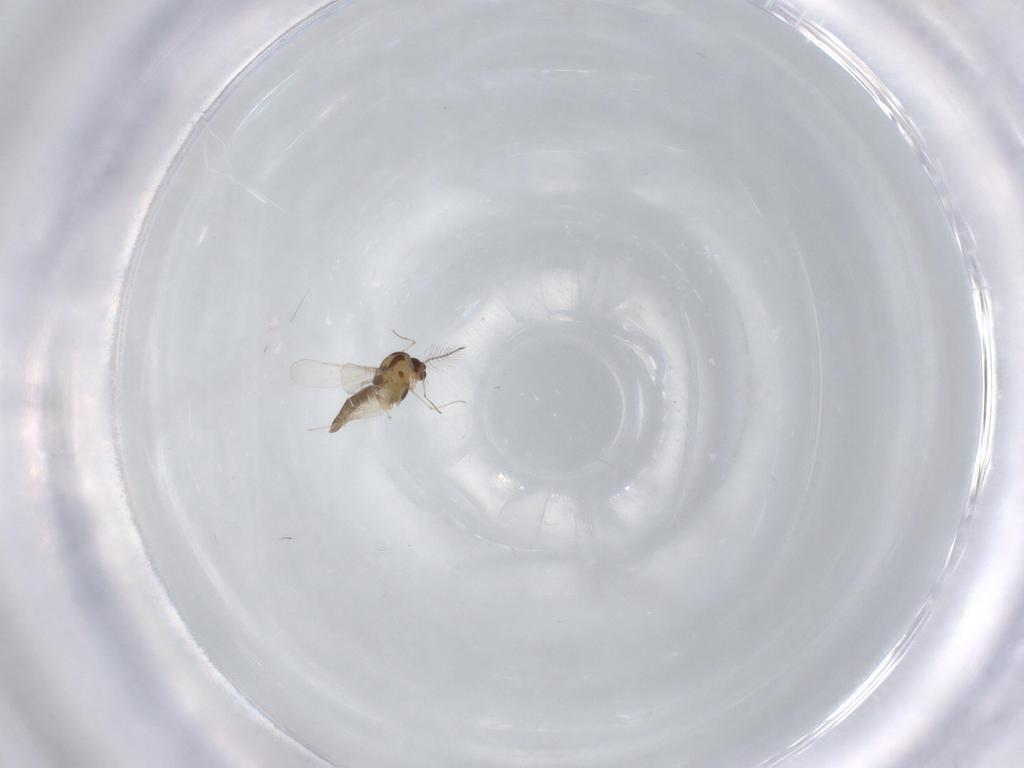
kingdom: Animalia
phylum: Arthropoda
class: Insecta
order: Diptera
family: Chironomidae
